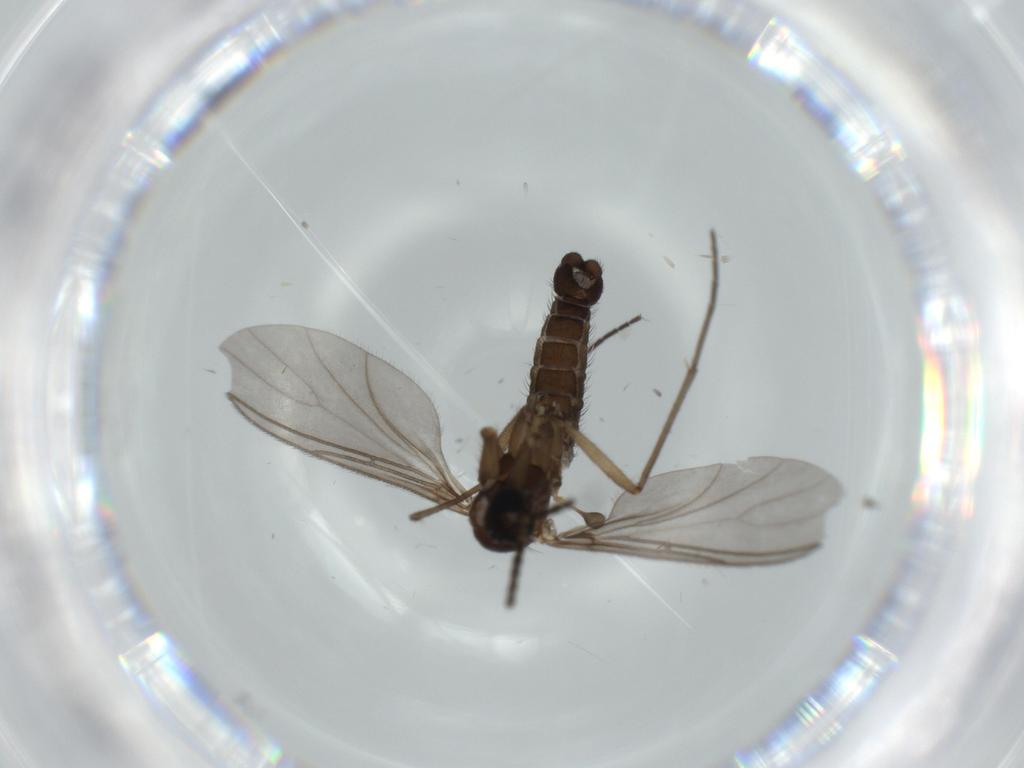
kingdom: Animalia
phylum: Arthropoda
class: Insecta
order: Diptera
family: Sciaridae
